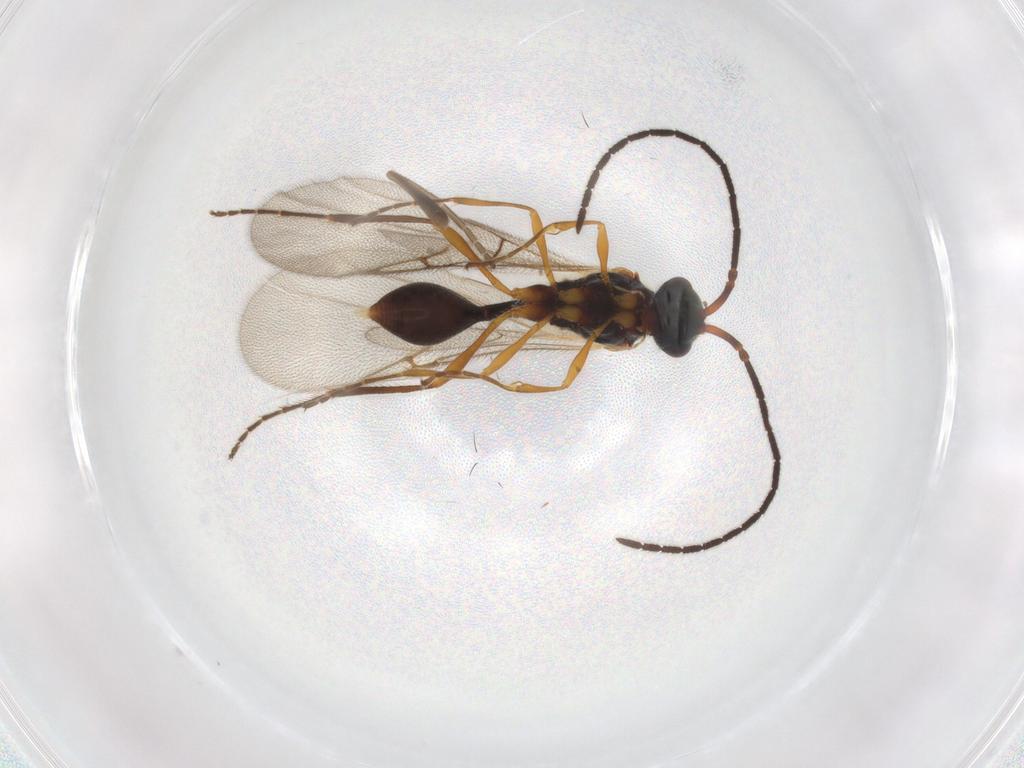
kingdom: Animalia
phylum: Arthropoda
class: Insecta
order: Hymenoptera
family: Diapriidae
